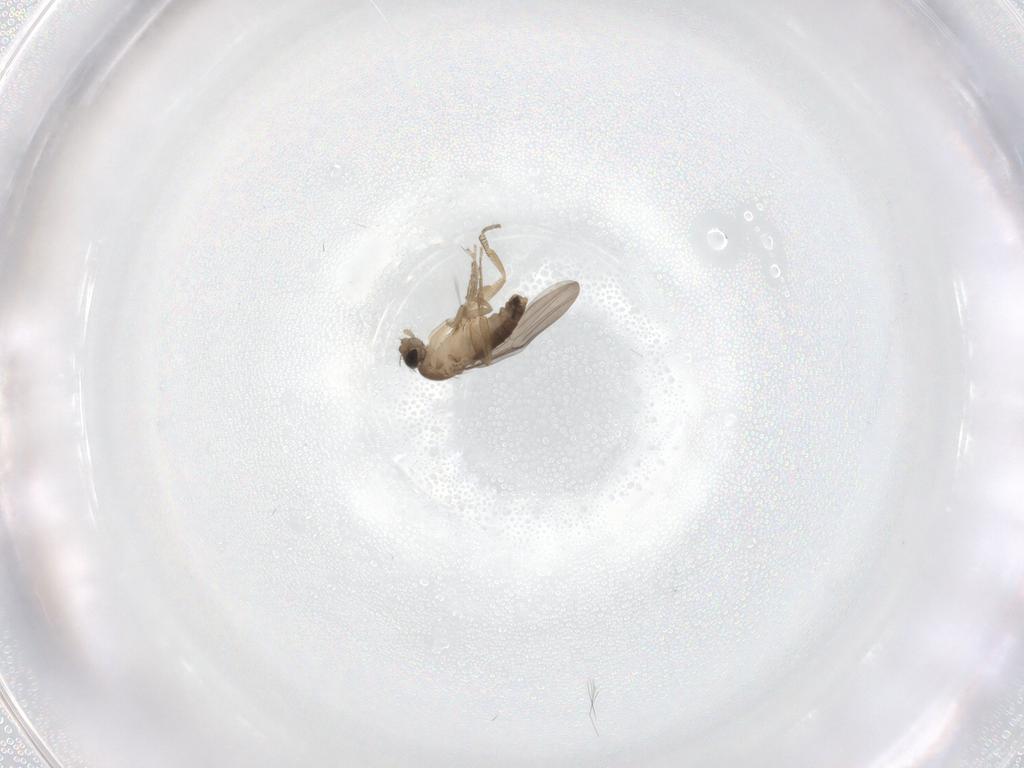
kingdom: Animalia
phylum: Arthropoda
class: Insecta
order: Diptera
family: Phoridae
